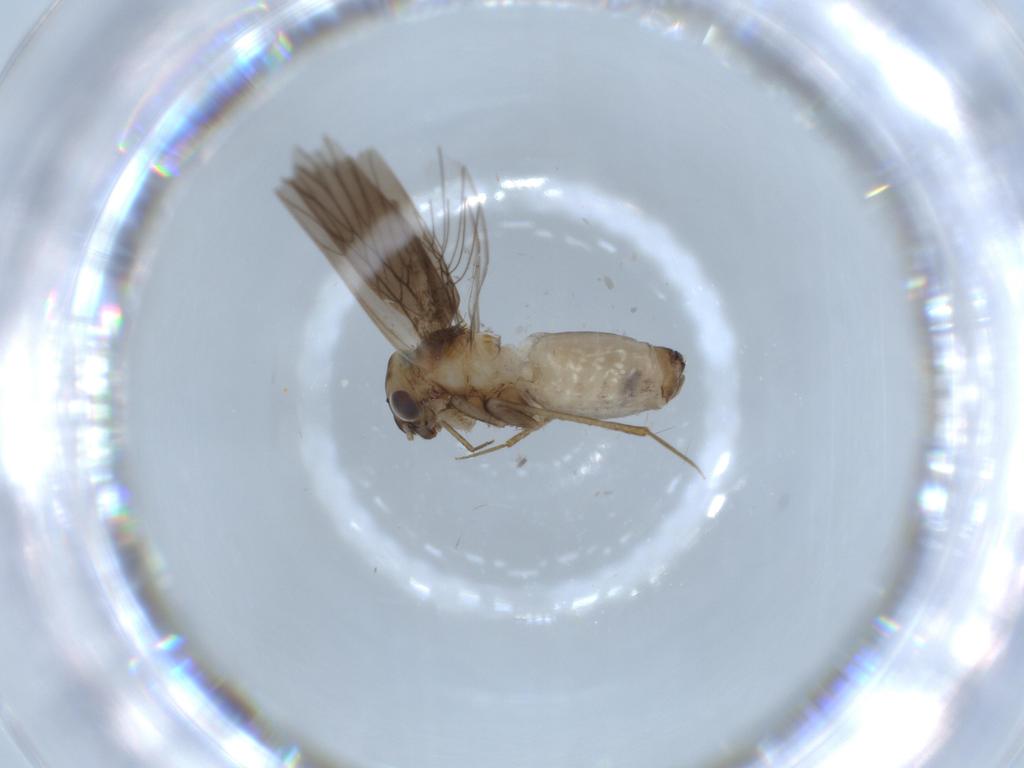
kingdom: Animalia
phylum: Arthropoda
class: Insecta
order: Psocodea
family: Lepidopsocidae
